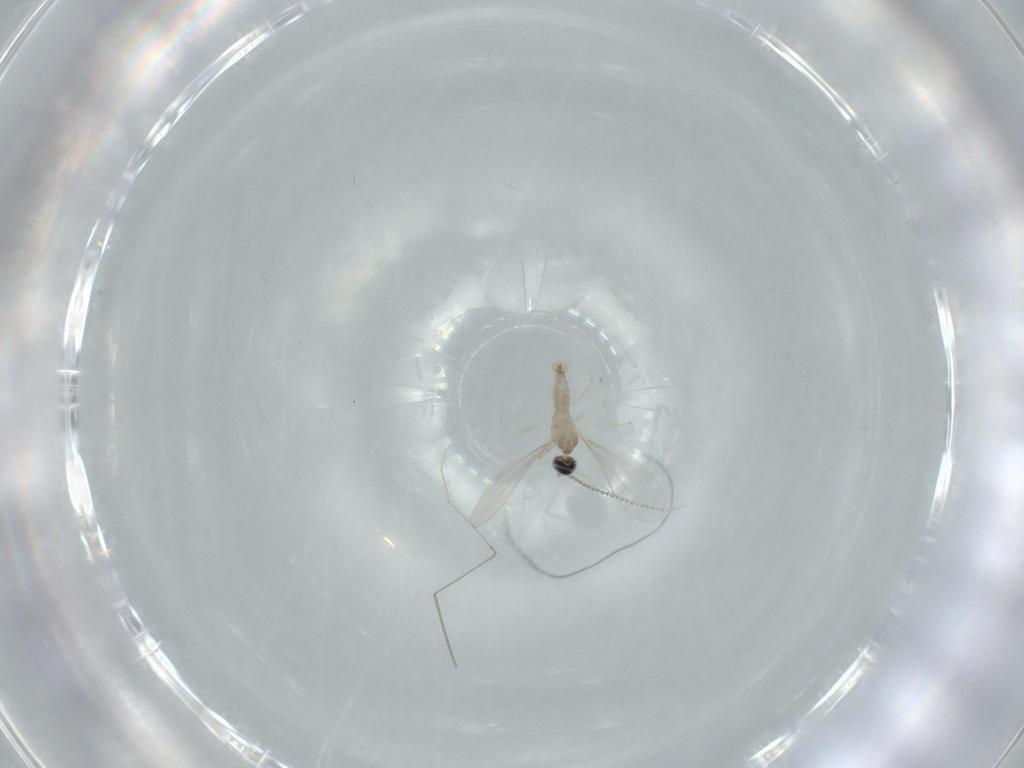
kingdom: Animalia
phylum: Arthropoda
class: Insecta
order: Diptera
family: Cecidomyiidae
